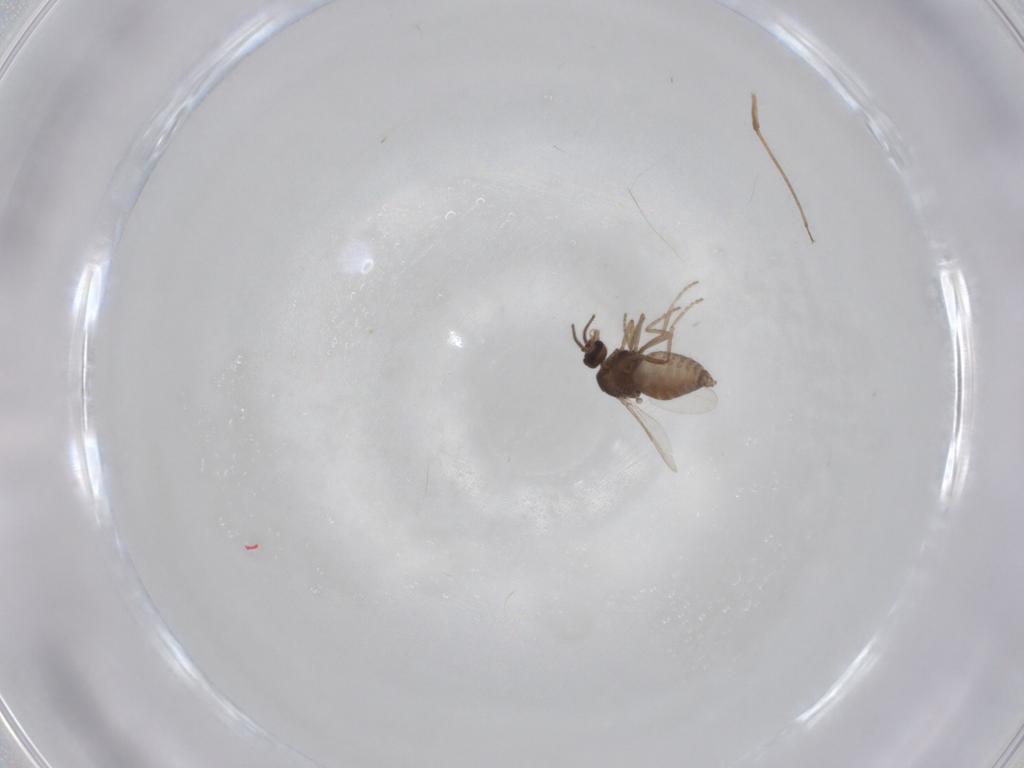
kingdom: Animalia
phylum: Arthropoda
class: Insecta
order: Diptera
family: Ceratopogonidae
